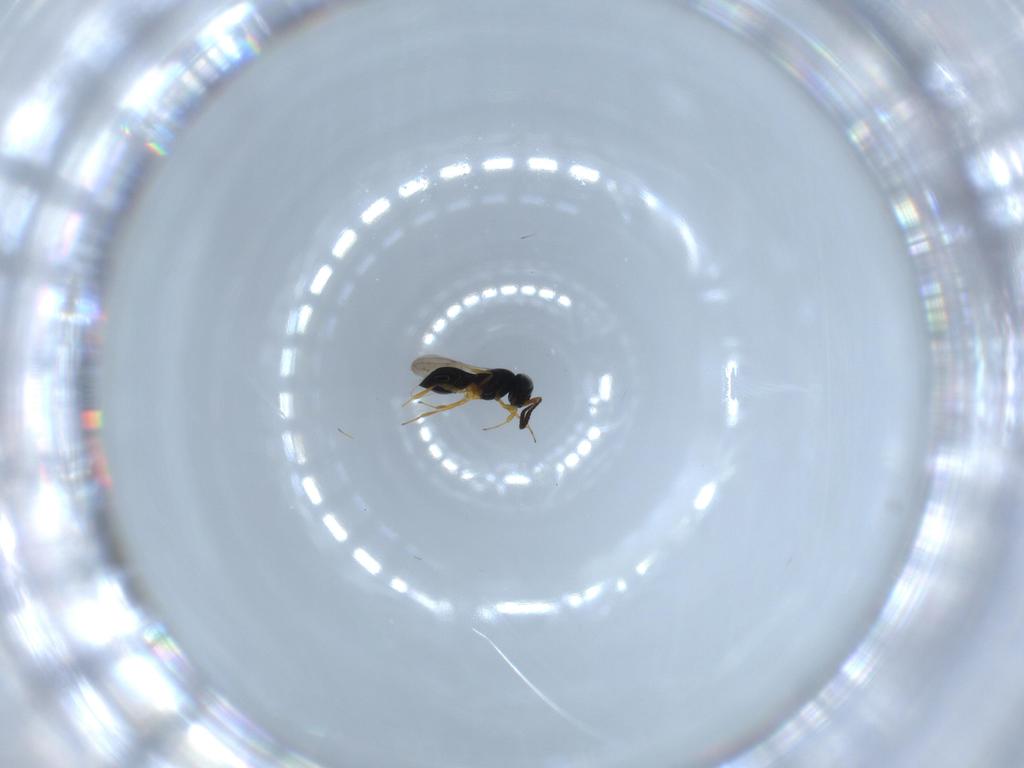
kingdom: Animalia
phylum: Arthropoda
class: Insecta
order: Hymenoptera
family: Scelionidae
